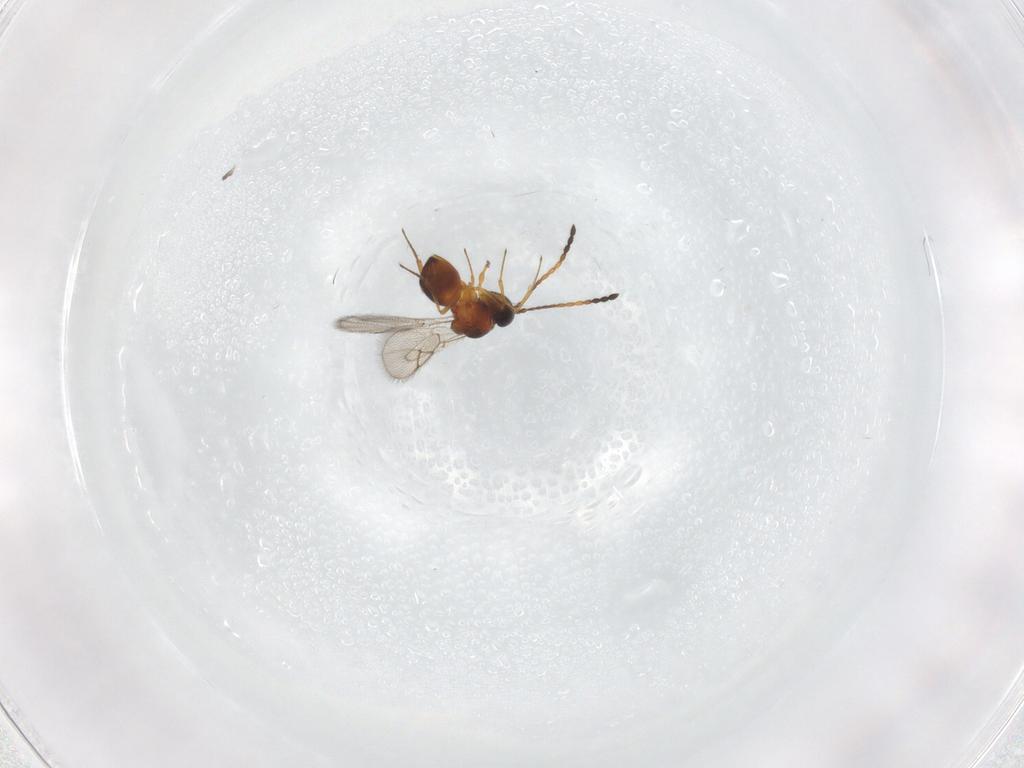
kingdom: Animalia
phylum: Arthropoda
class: Insecta
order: Hymenoptera
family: Figitidae
